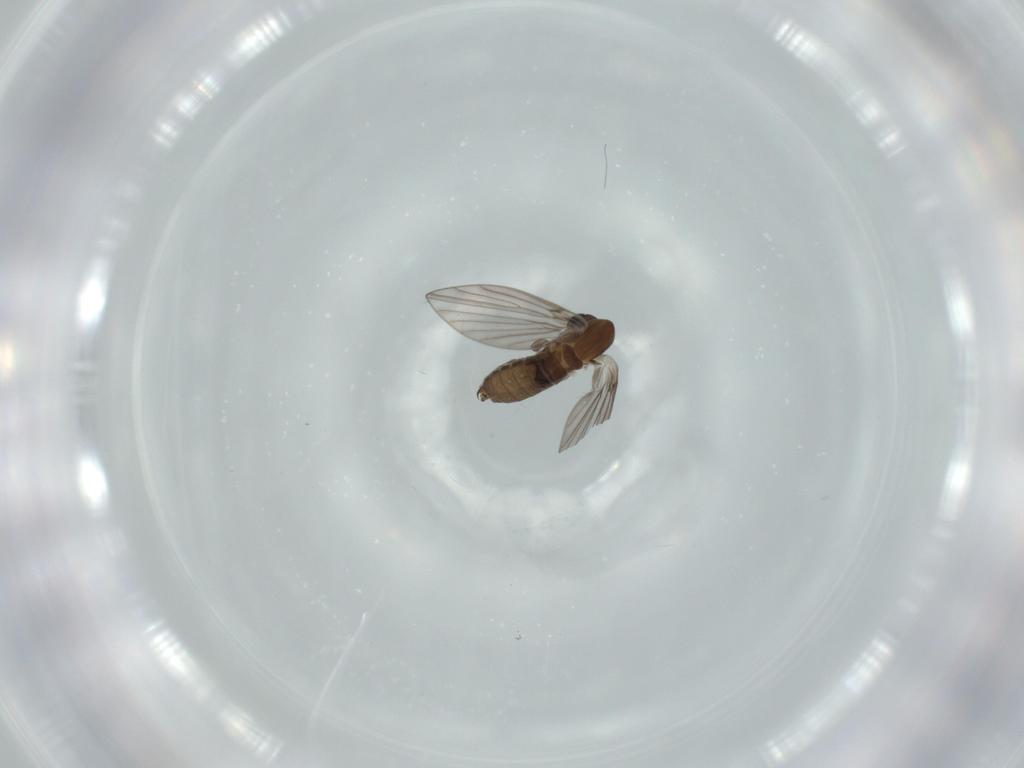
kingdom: Animalia
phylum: Arthropoda
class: Insecta
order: Diptera
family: Psychodidae
